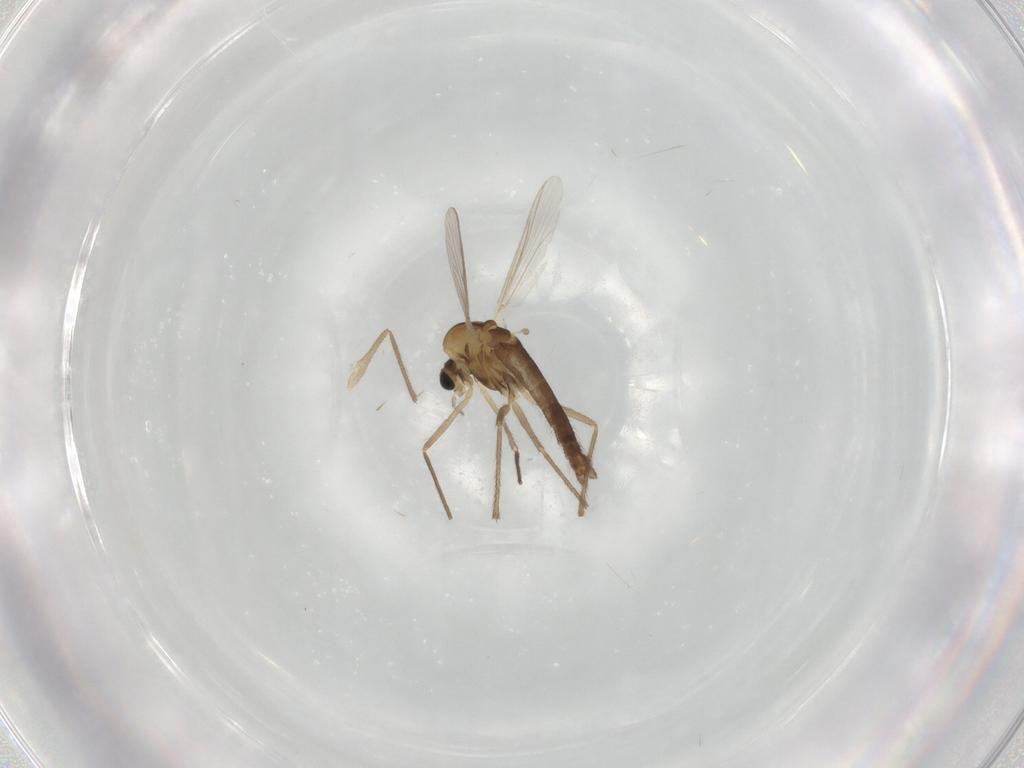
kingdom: Animalia
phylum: Arthropoda
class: Insecta
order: Diptera
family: Chironomidae
